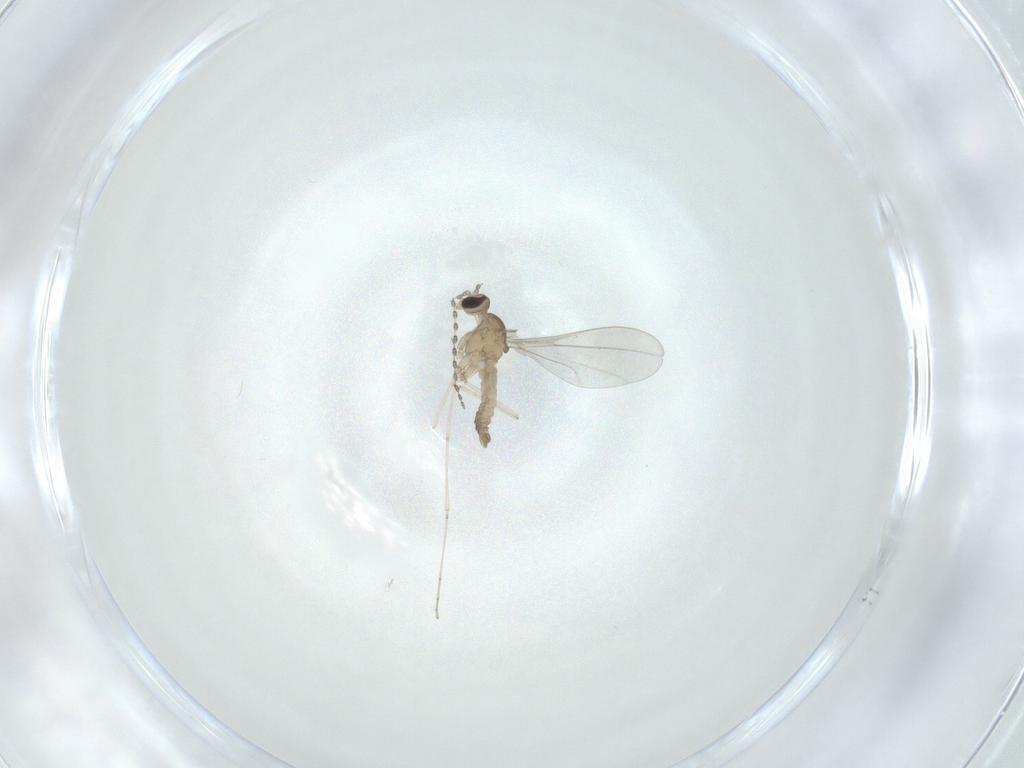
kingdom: Animalia
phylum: Arthropoda
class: Insecta
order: Diptera
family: Cecidomyiidae
